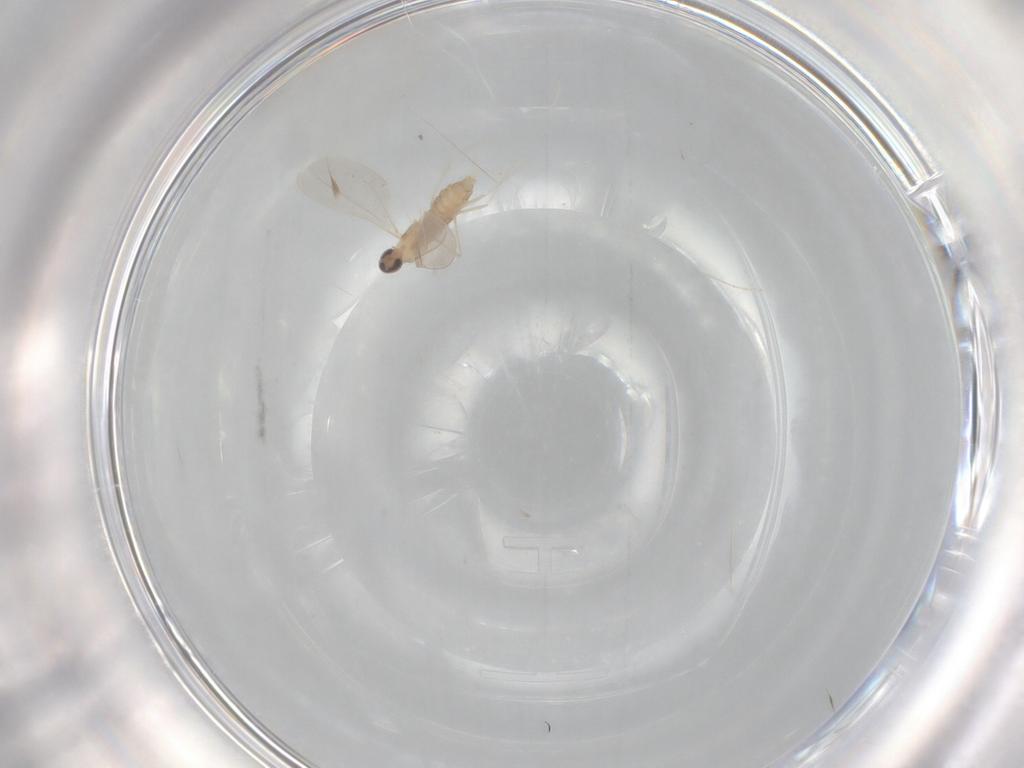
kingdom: Animalia
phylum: Arthropoda
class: Insecta
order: Diptera
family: Cecidomyiidae
